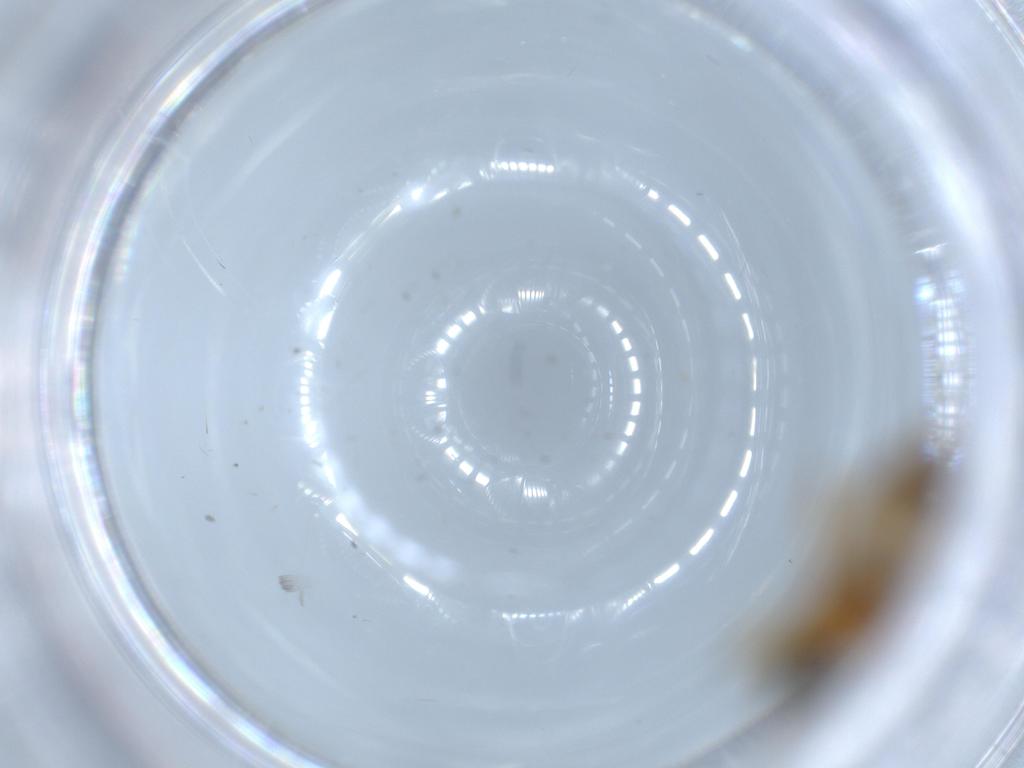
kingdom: Animalia
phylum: Arthropoda
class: Insecta
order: Diptera
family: Hybotidae
